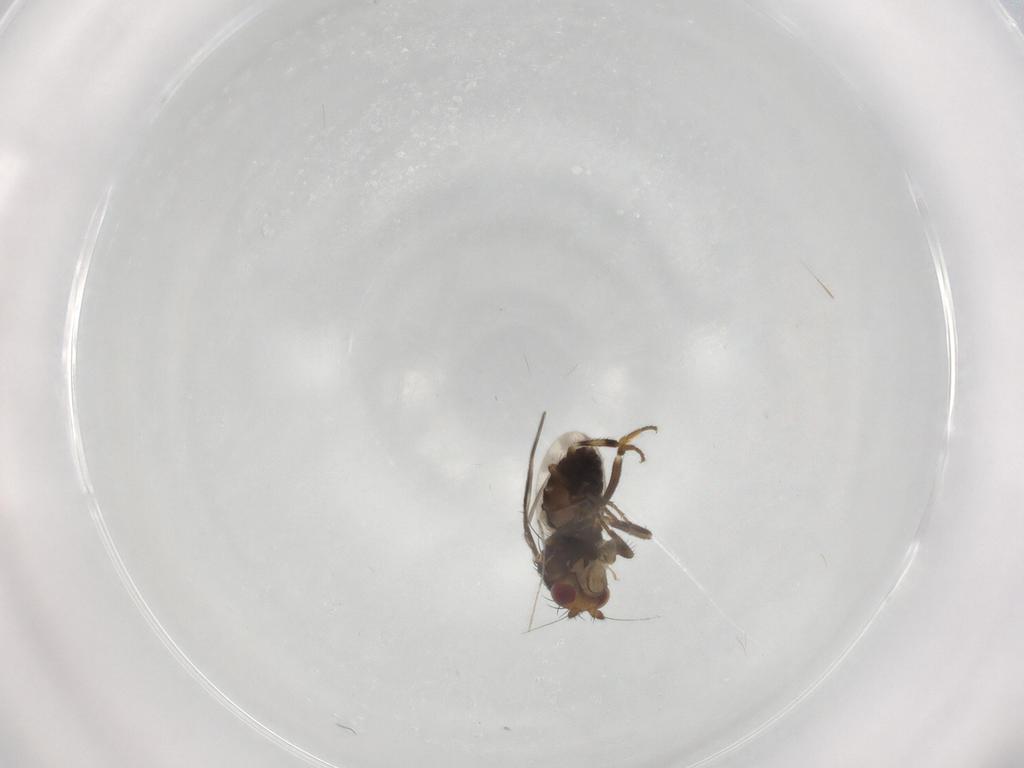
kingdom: Animalia
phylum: Arthropoda
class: Insecta
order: Diptera
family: Sphaeroceridae
